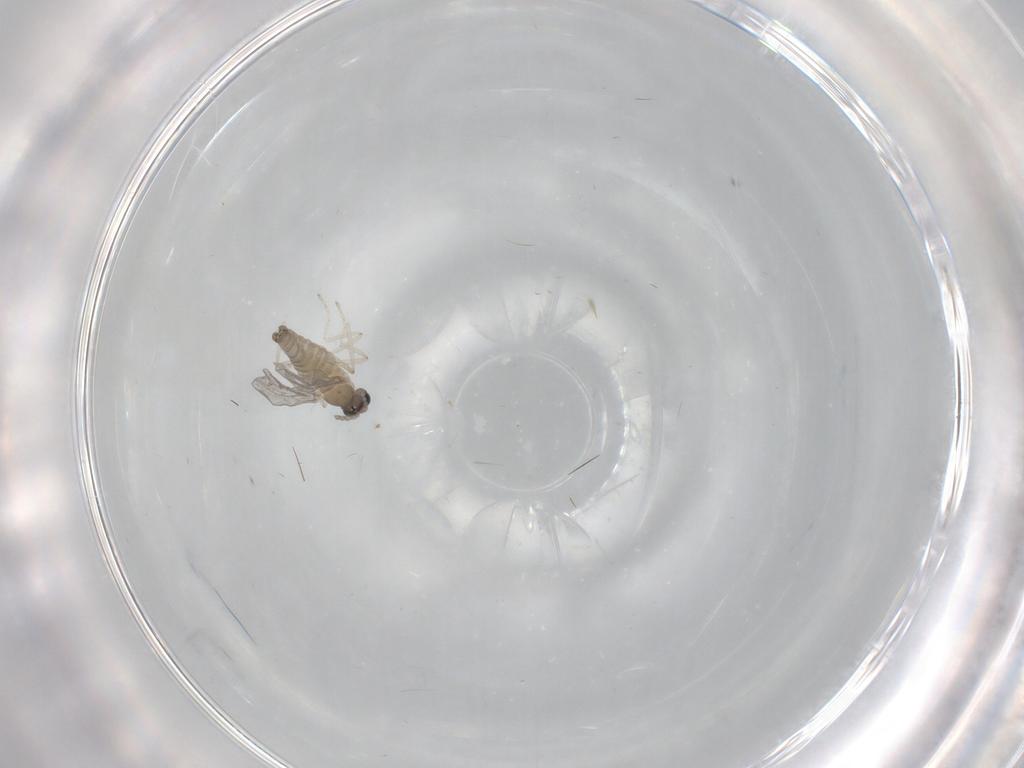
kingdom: Animalia
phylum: Arthropoda
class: Insecta
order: Diptera
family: Cecidomyiidae
